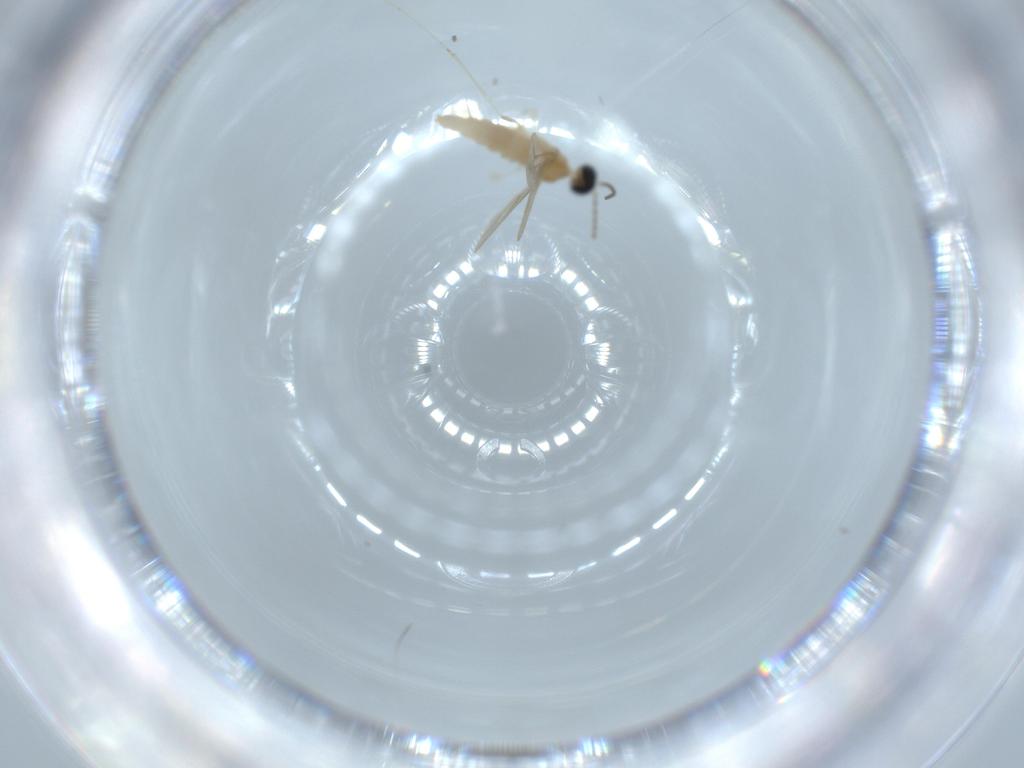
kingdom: Animalia
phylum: Arthropoda
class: Insecta
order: Diptera
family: Cecidomyiidae
